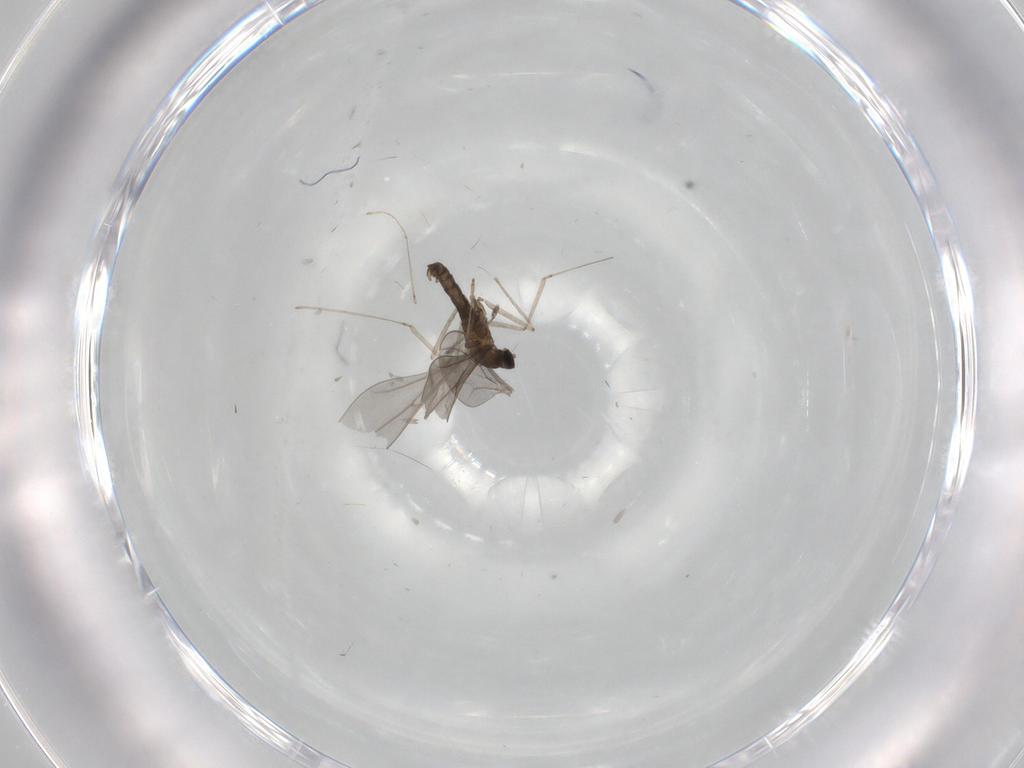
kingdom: Animalia
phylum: Arthropoda
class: Insecta
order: Diptera
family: Cecidomyiidae
